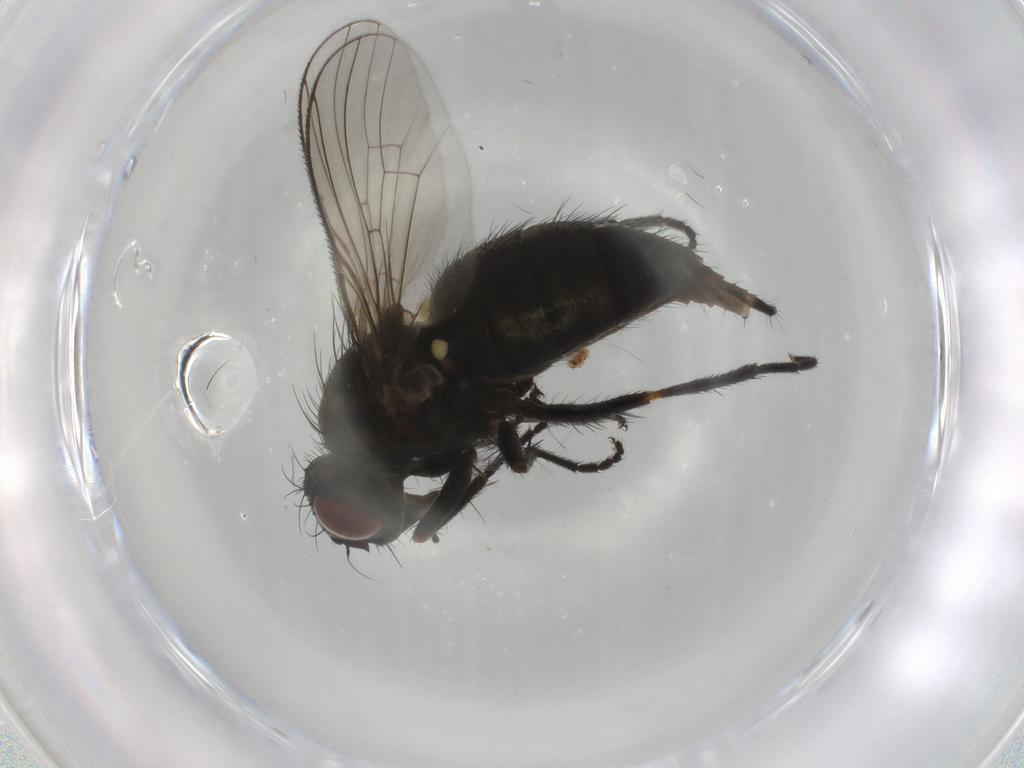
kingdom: Animalia
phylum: Arthropoda
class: Insecta
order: Diptera
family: Muscidae
